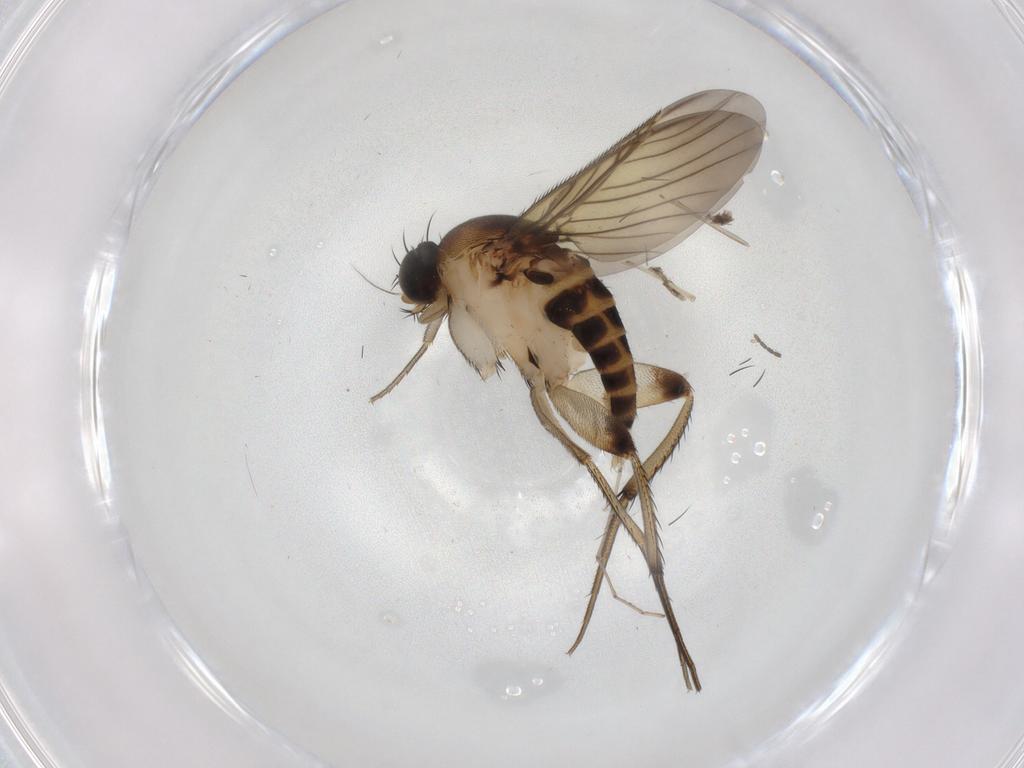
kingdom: Animalia
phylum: Arthropoda
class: Insecta
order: Diptera
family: Phoridae
